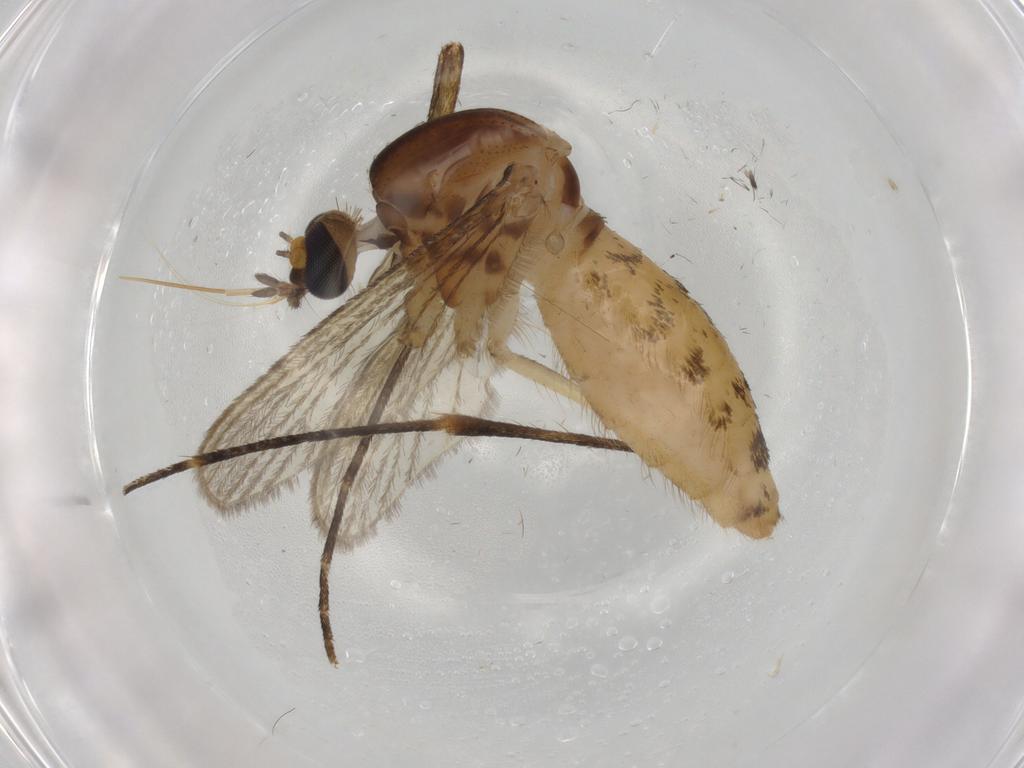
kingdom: Animalia
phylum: Arthropoda
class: Insecta
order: Diptera
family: Culicidae
